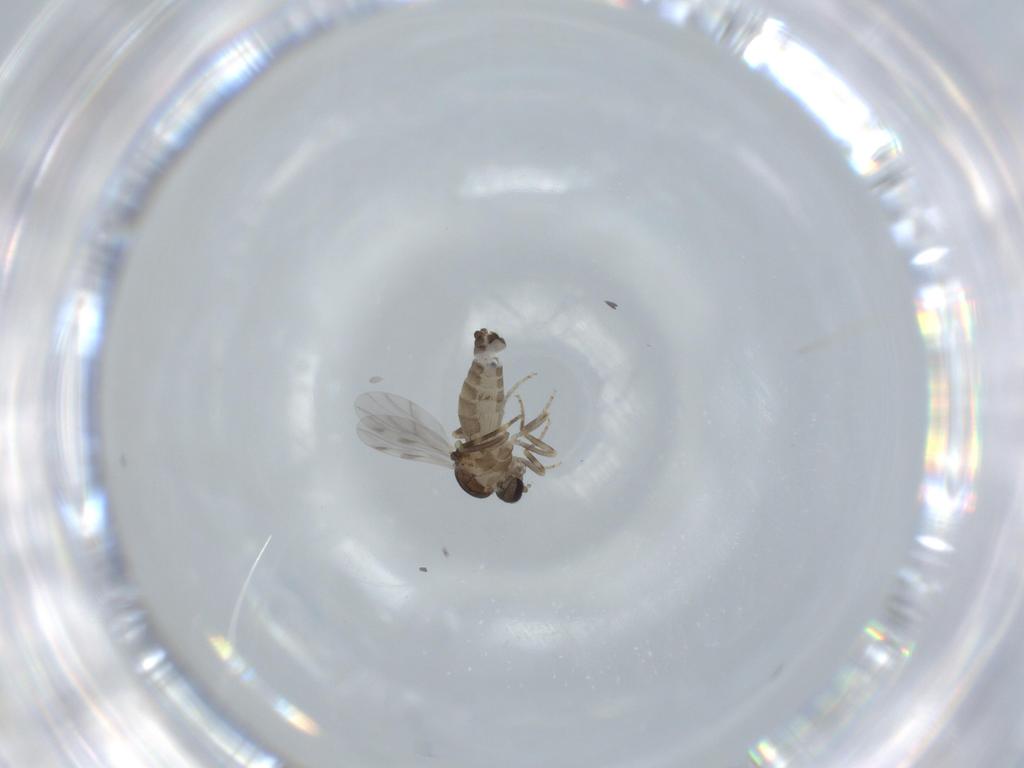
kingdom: Animalia
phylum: Arthropoda
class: Insecta
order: Diptera
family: Ceratopogonidae
